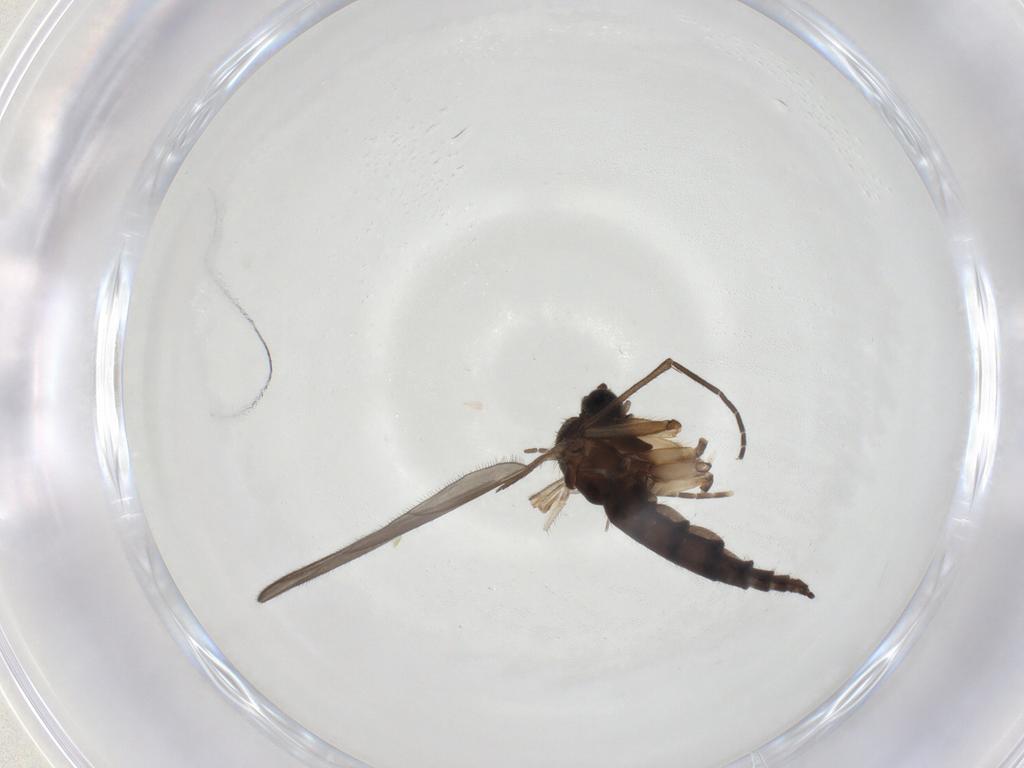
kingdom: Animalia
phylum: Arthropoda
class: Insecta
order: Diptera
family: Sciaridae
